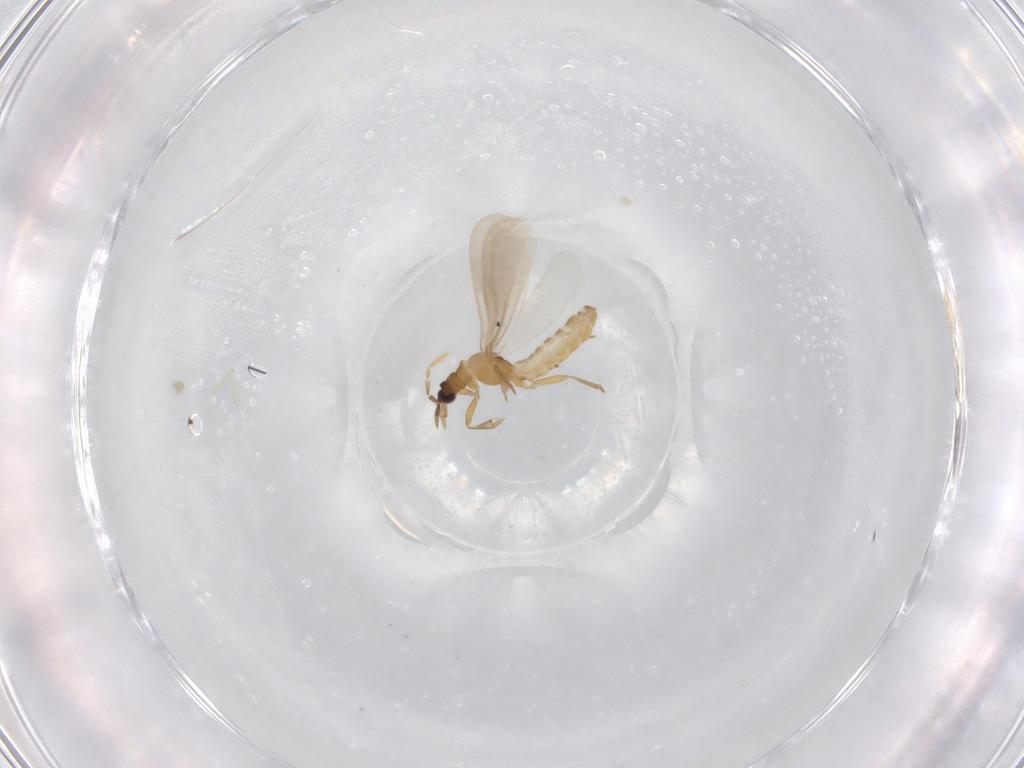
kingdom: Animalia
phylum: Arthropoda
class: Insecta
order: Hemiptera
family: Enicocephalidae
